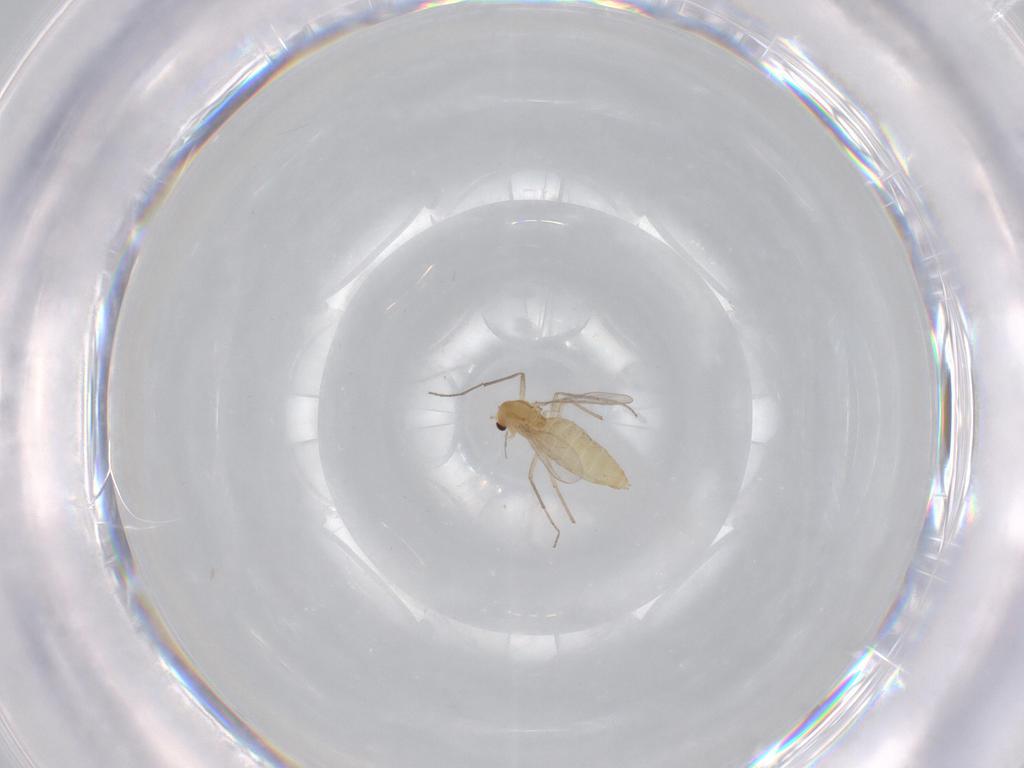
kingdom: Animalia
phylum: Arthropoda
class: Insecta
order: Diptera
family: Chironomidae
